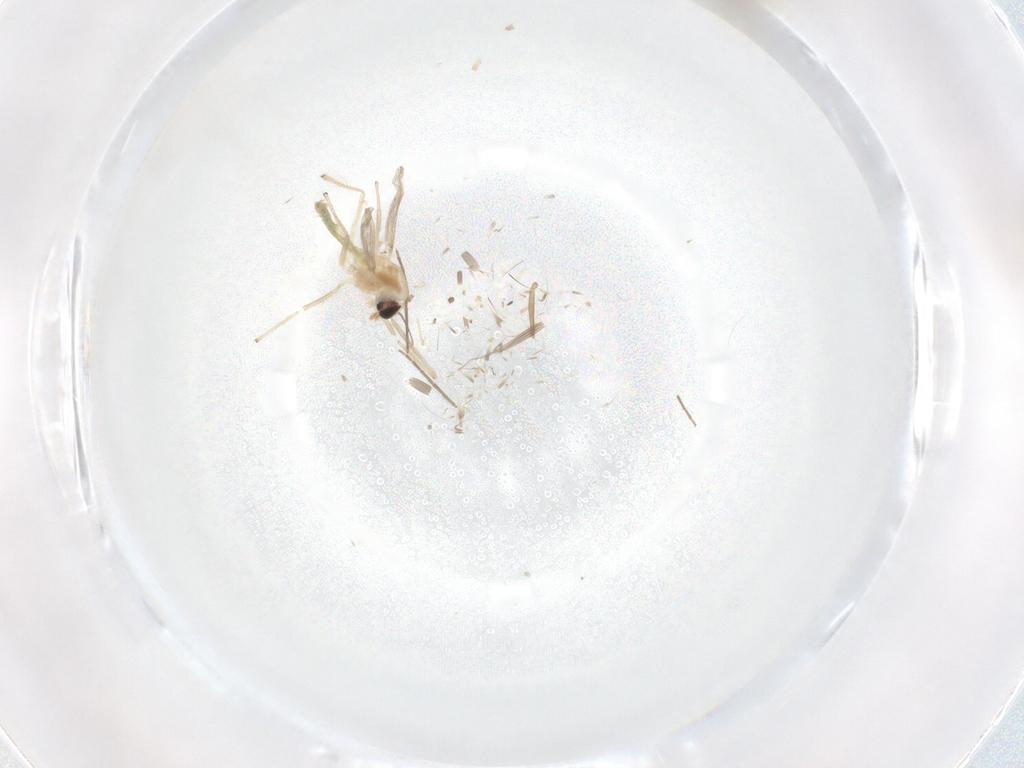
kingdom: Animalia
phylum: Arthropoda
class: Insecta
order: Diptera
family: Chironomidae
